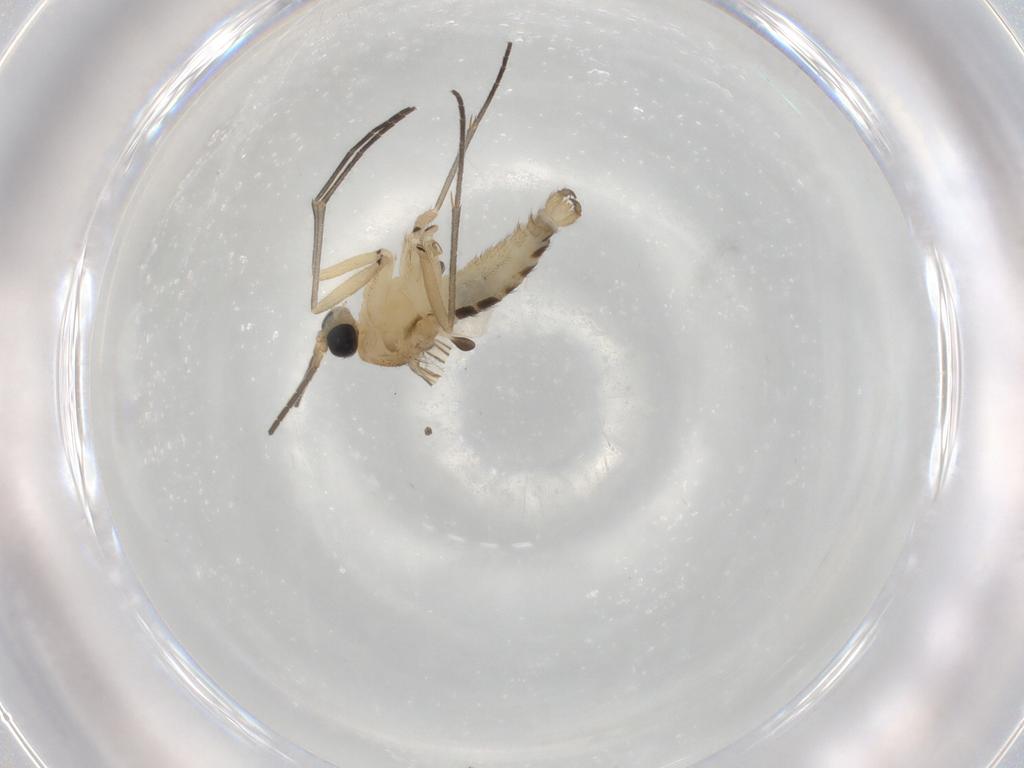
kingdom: Animalia
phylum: Arthropoda
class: Insecta
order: Diptera
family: Sciaridae
